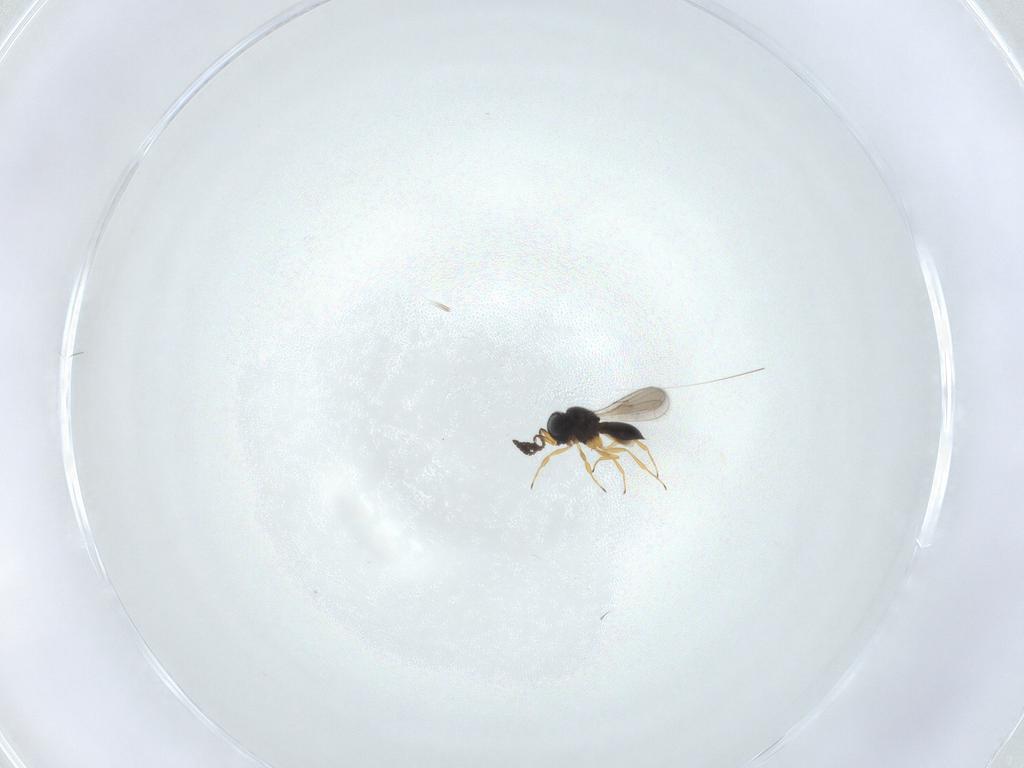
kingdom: Animalia
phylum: Arthropoda
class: Insecta
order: Hymenoptera
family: Scelionidae
